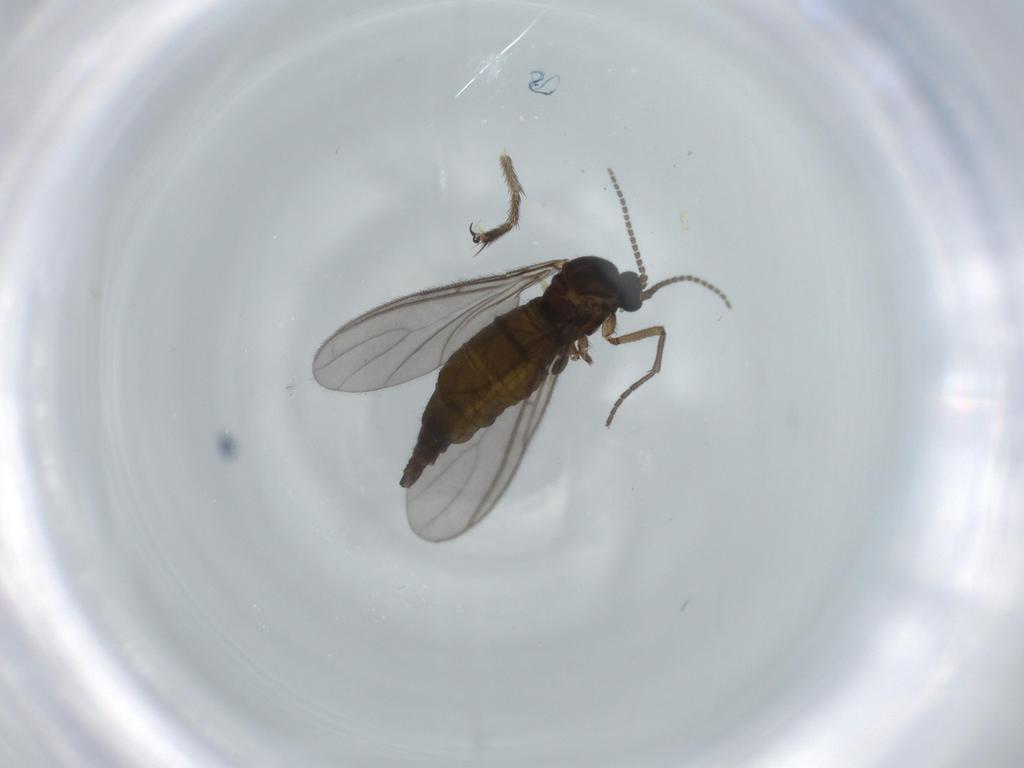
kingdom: Animalia
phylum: Arthropoda
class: Insecta
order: Diptera
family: Sciaridae
